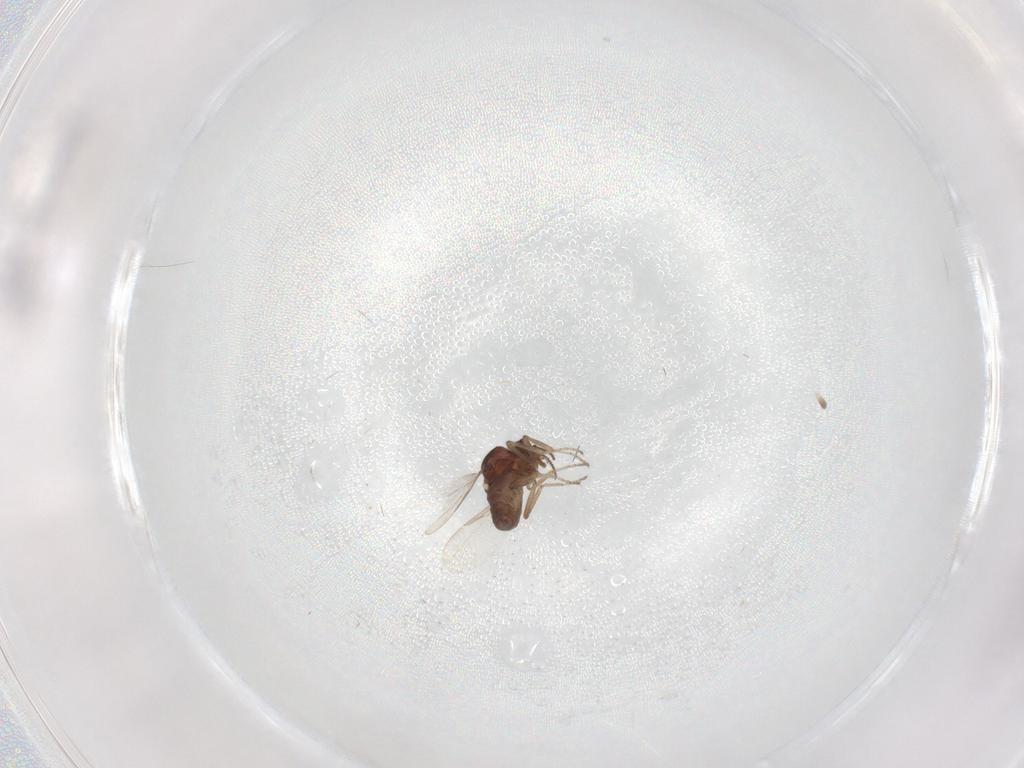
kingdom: Animalia
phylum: Arthropoda
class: Insecta
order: Diptera
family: Ceratopogonidae
